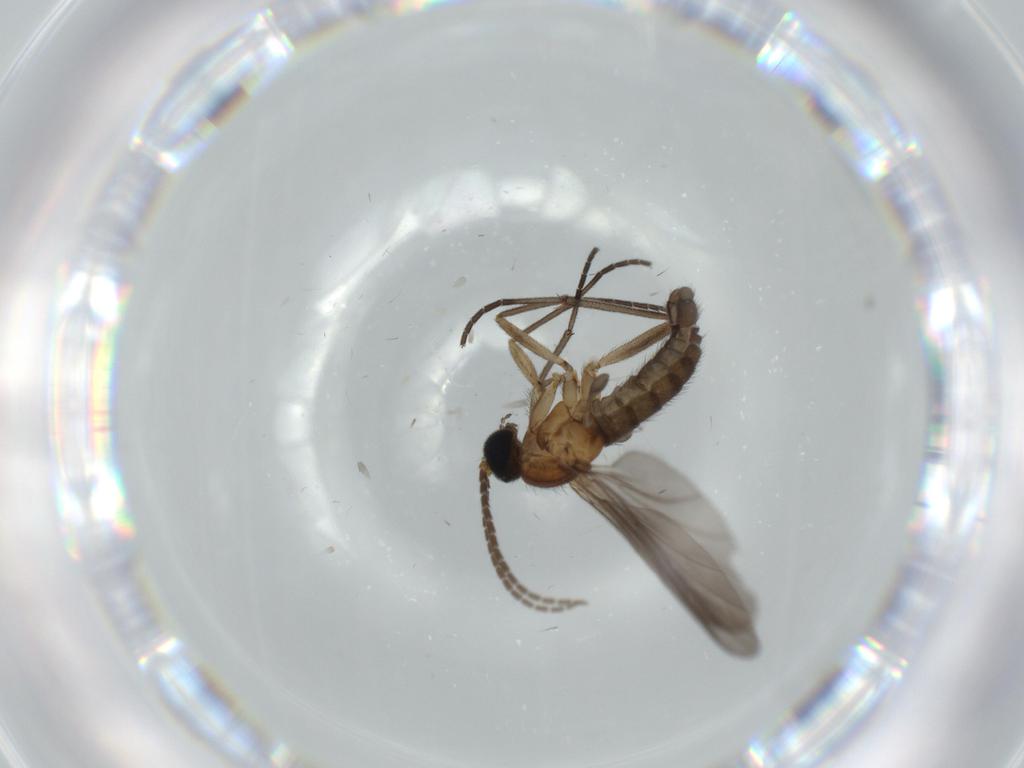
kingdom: Animalia
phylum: Arthropoda
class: Insecta
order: Diptera
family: Sciaridae
